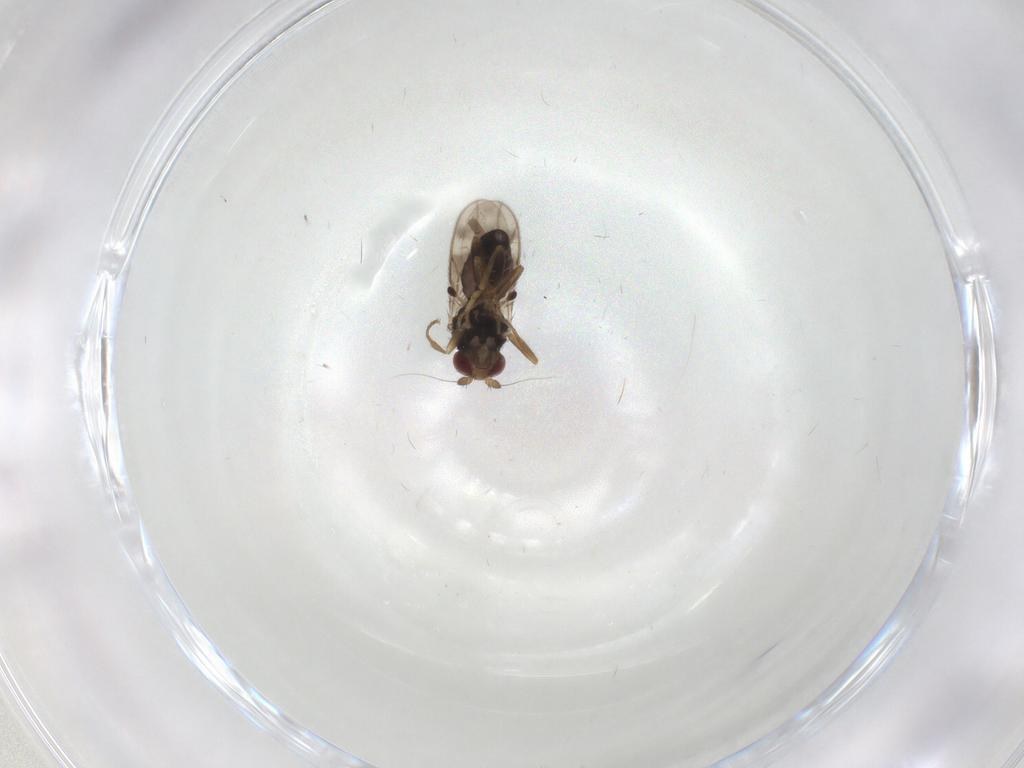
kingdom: Animalia
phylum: Arthropoda
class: Insecta
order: Diptera
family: Sphaeroceridae
